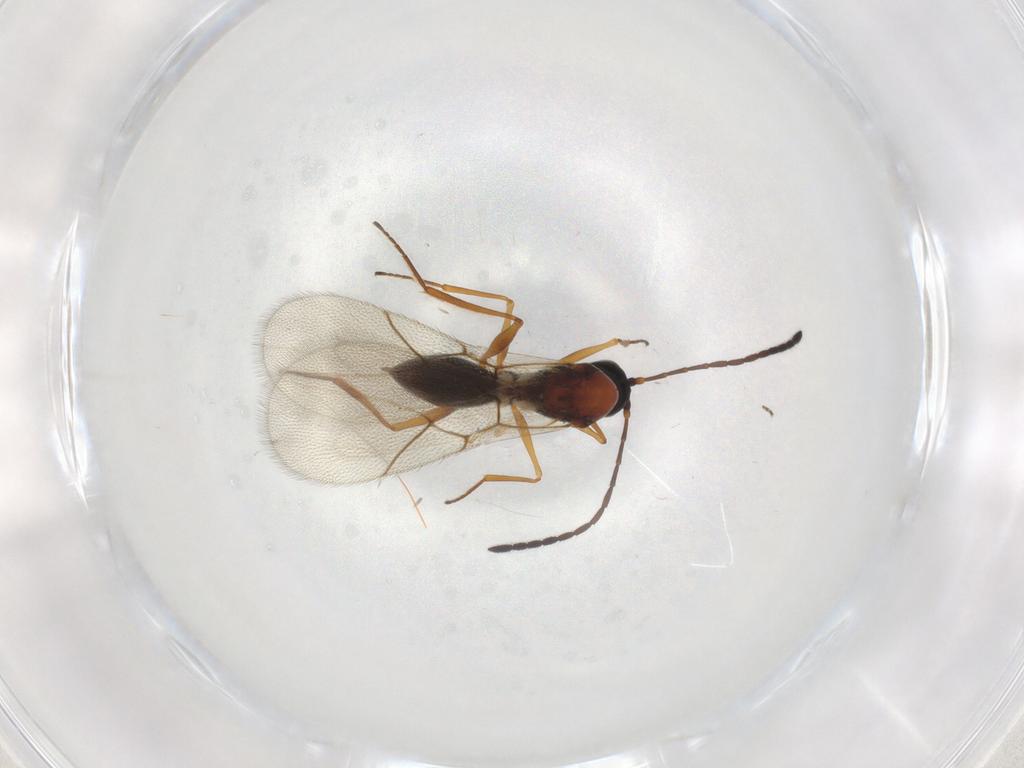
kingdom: Animalia
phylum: Arthropoda
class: Insecta
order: Hymenoptera
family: Figitidae
